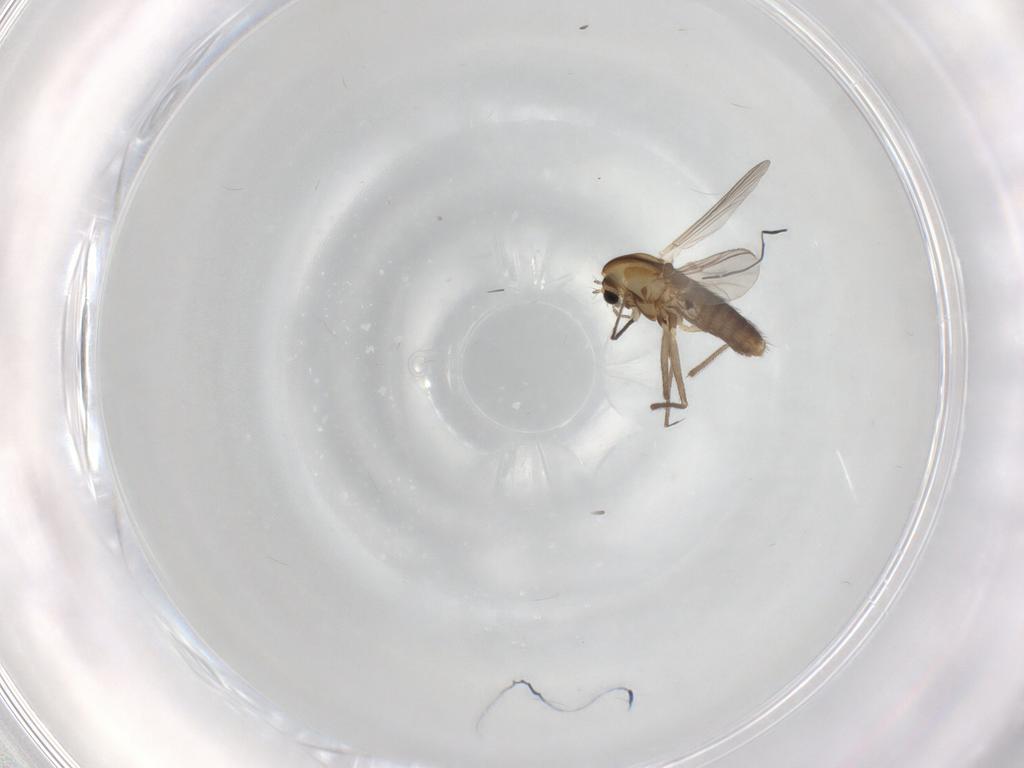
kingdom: Animalia
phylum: Arthropoda
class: Insecta
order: Diptera
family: Chironomidae
